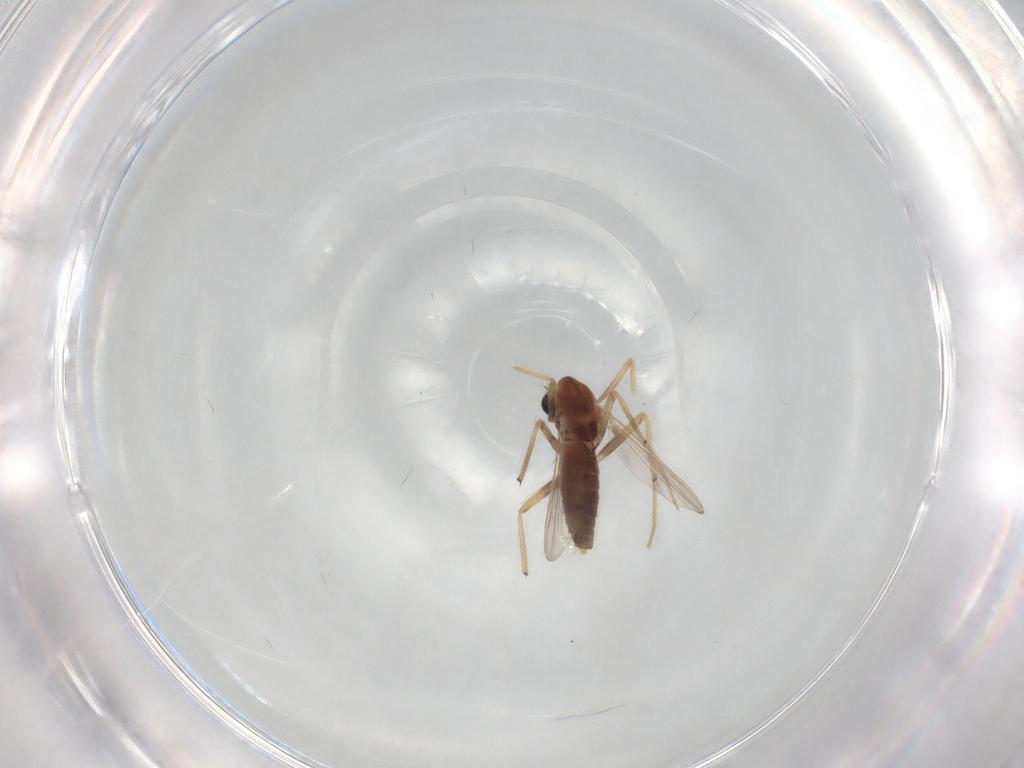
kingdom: Animalia
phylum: Arthropoda
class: Insecta
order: Diptera
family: Chironomidae
